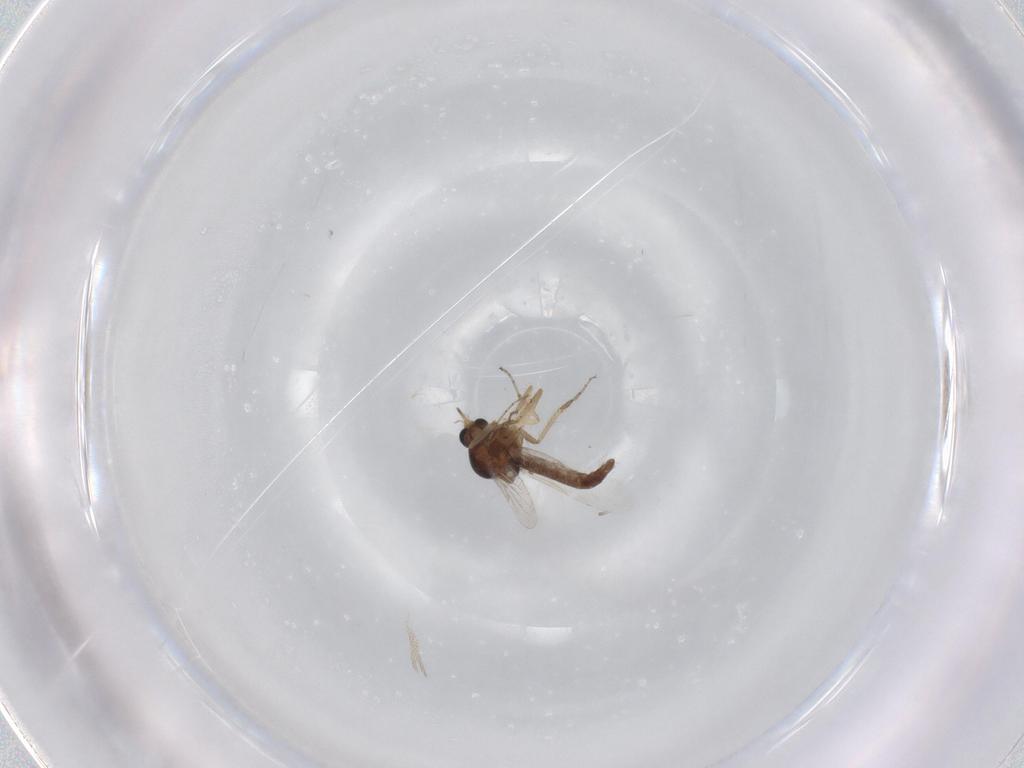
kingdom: Animalia
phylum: Arthropoda
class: Insecta
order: Diptera
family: Ceratopogonidae
